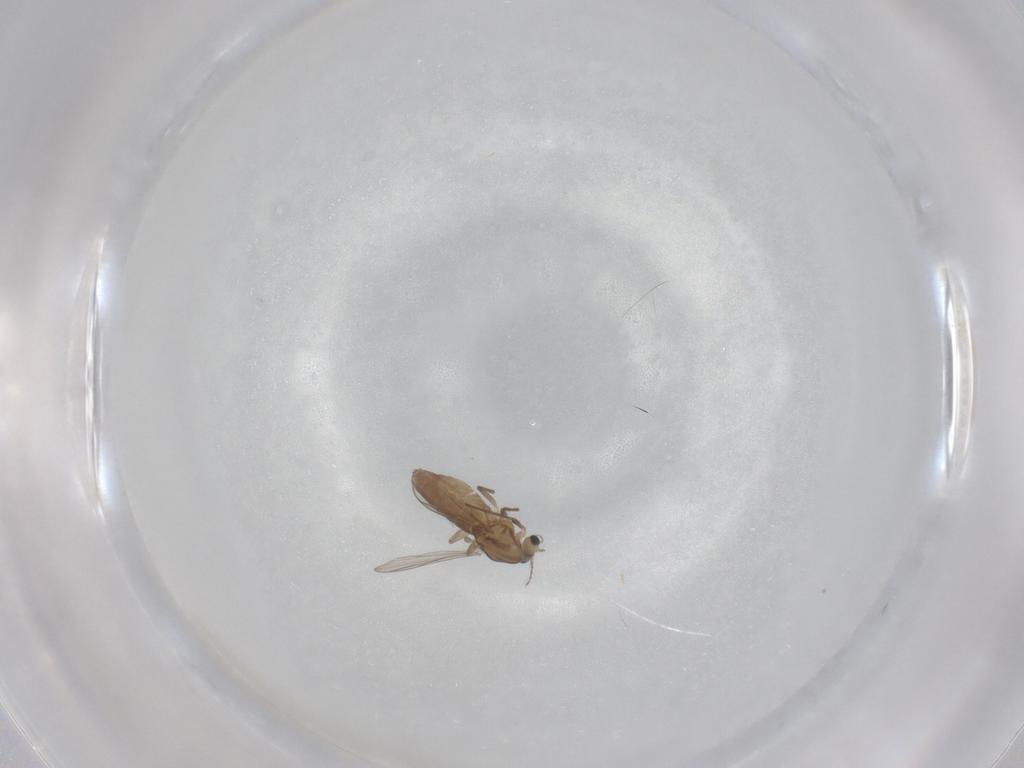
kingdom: Animalia
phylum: Arthropoda
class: Insecta
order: Diptera
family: Chironomidae
